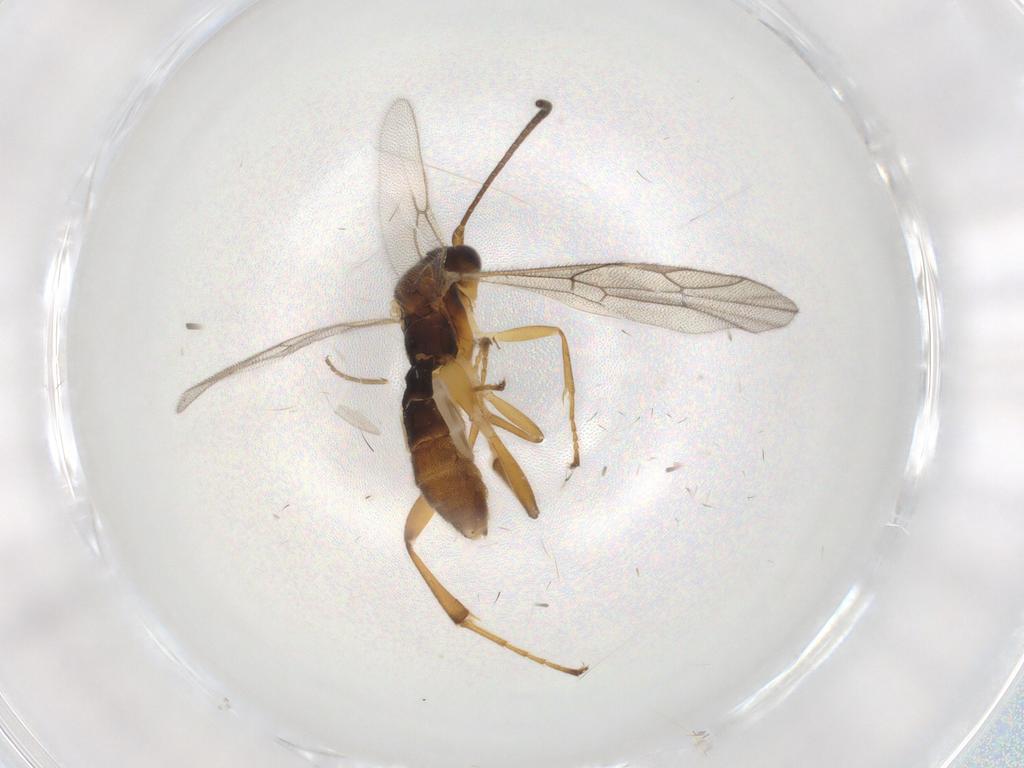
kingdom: Animalia
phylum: Arthropoda
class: Insecta
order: Hymenoptera
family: Ichneumonidae
